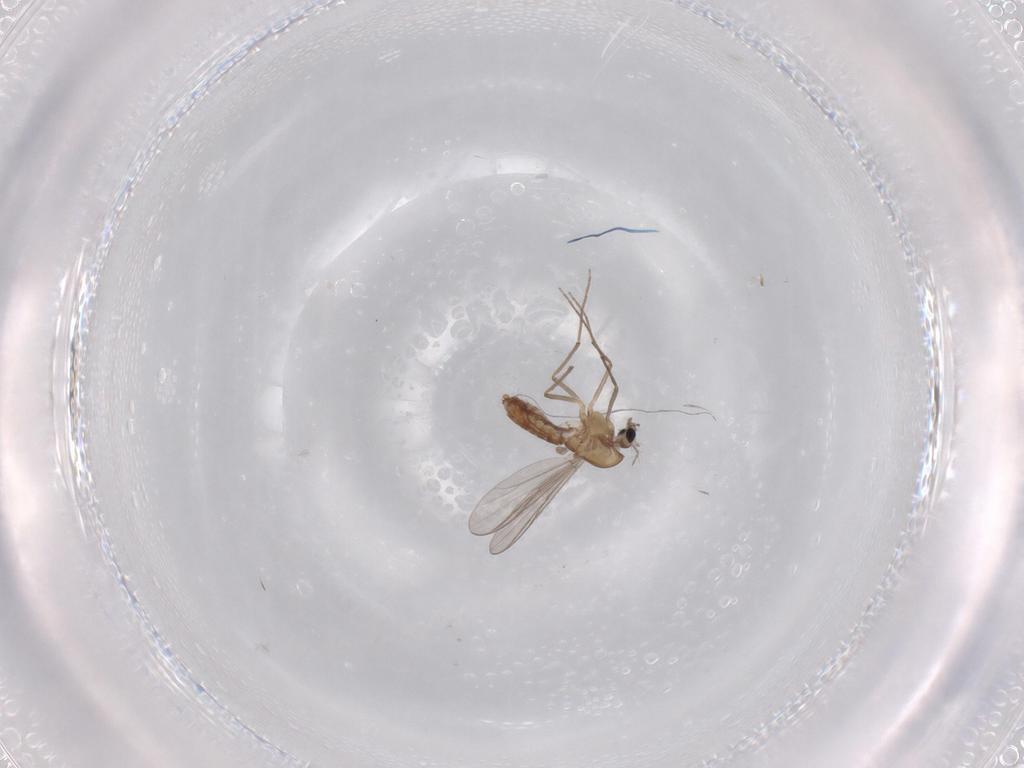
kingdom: Animalia
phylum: Arthropoda
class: Insecta
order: Diptera
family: Chironomidae
